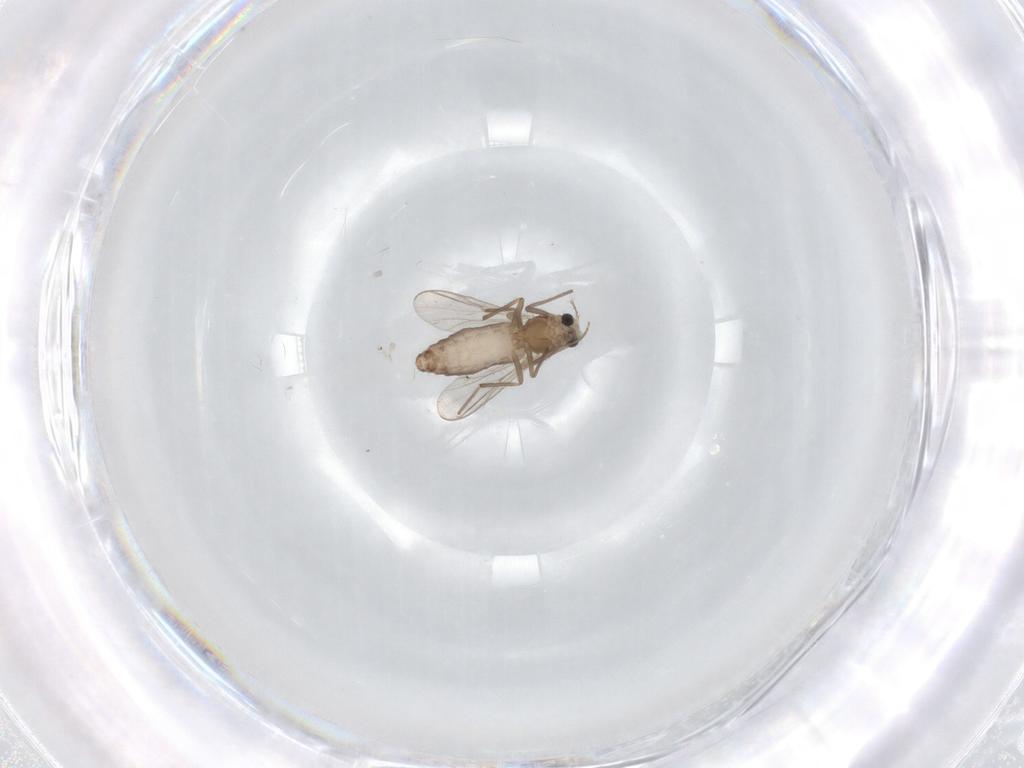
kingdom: Animalia
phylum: Arthropoda
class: Insecta
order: Diptera
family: Chironomidae
